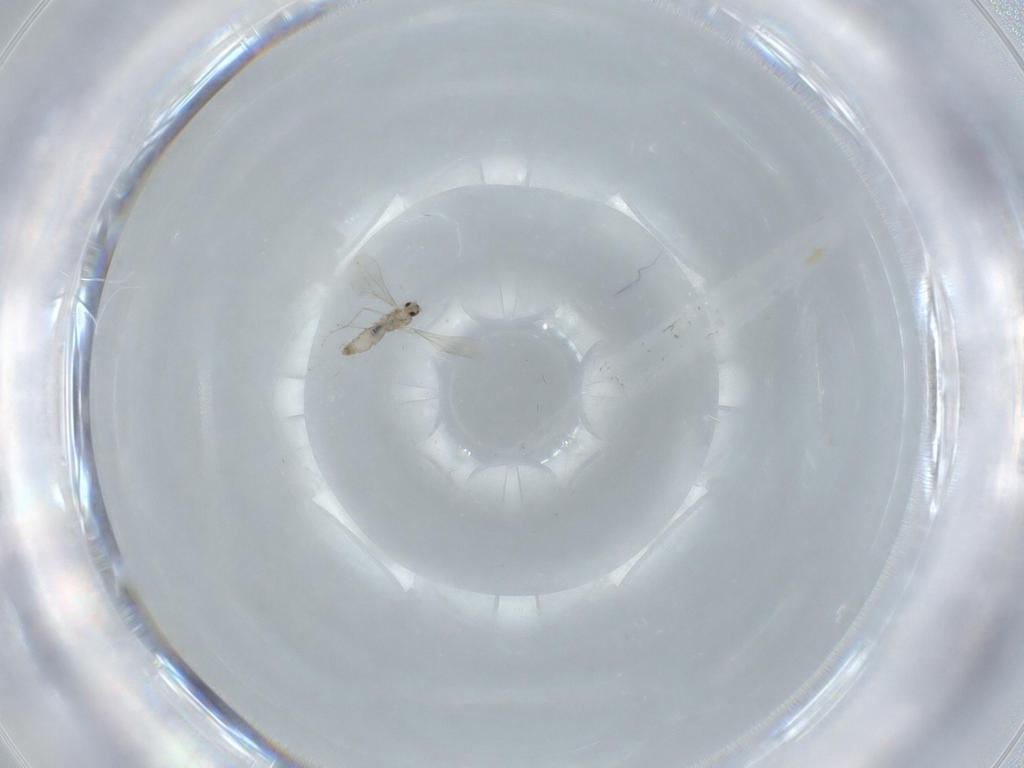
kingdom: Animalia
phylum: Arthropoda
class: Insecta
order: Diptera
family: Cecidomyiidae
